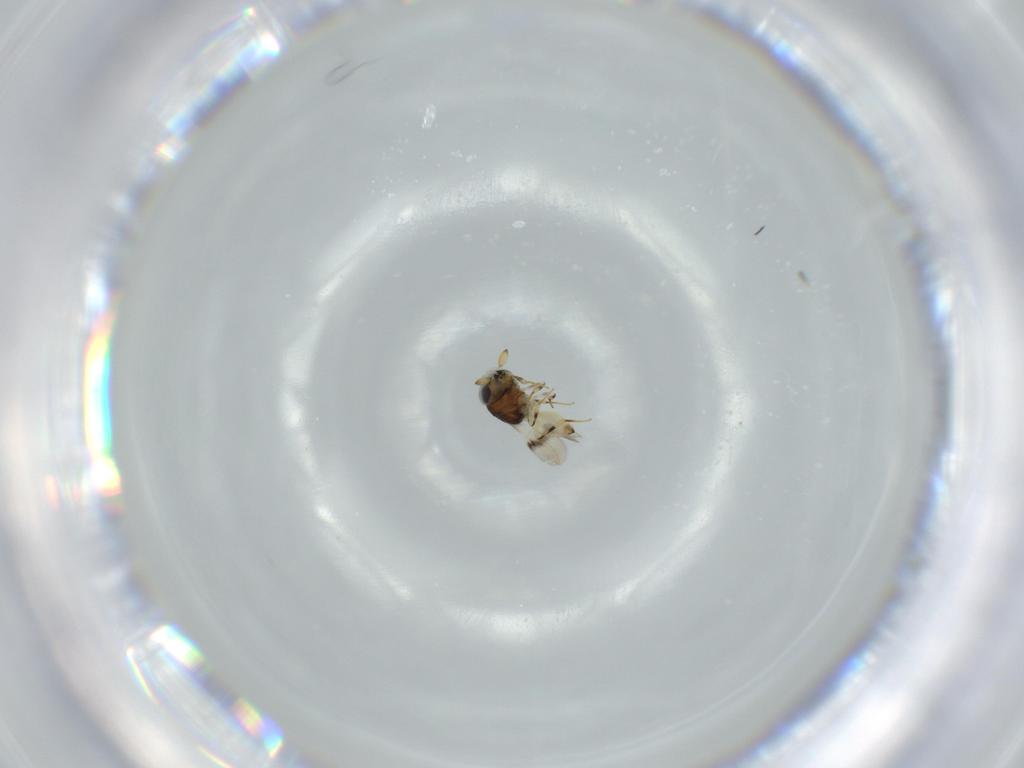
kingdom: Animalia
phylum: Arthropoda
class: Insecta
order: Hymenoptera
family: Scelionidae
